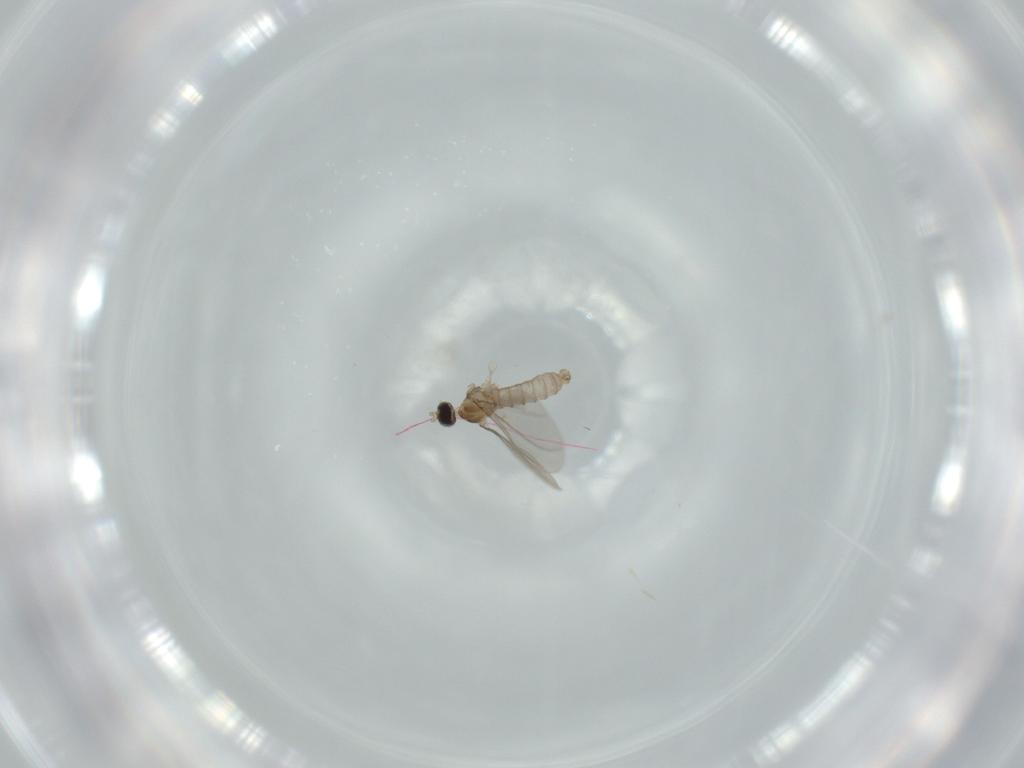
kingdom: Animalia
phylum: Arthropoda
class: Insecta
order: Diptera
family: Cecidomyiidae
